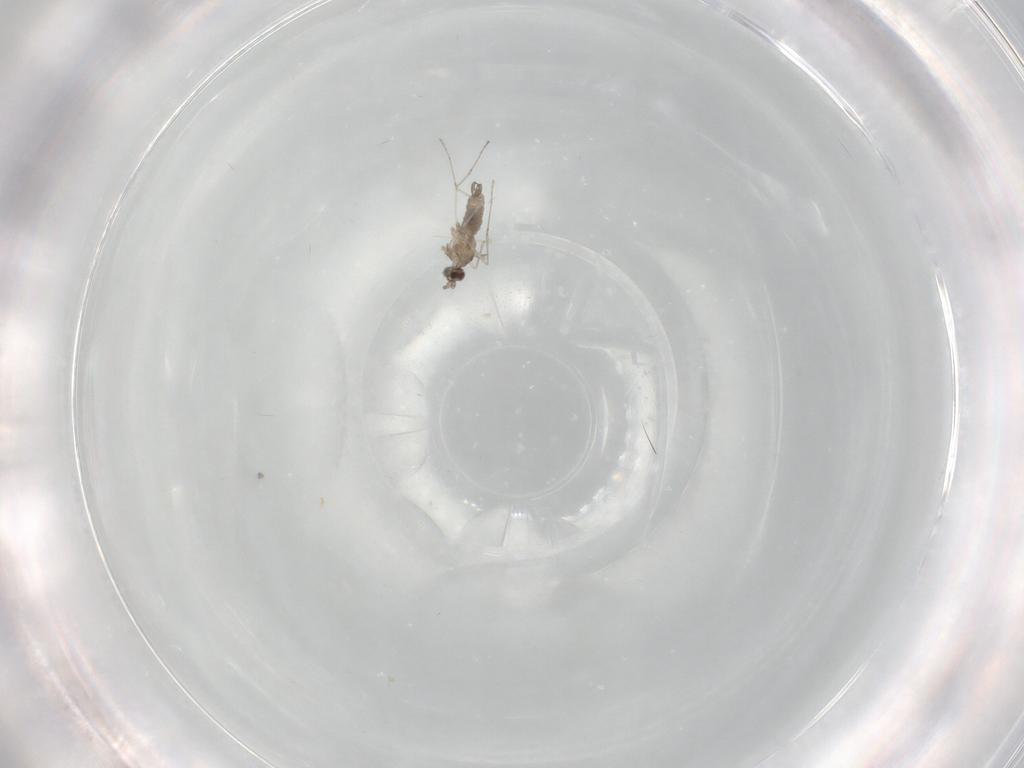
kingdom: Animalia
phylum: Arthropoda
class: Insecta
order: Diptera
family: Cecidomyiidae
